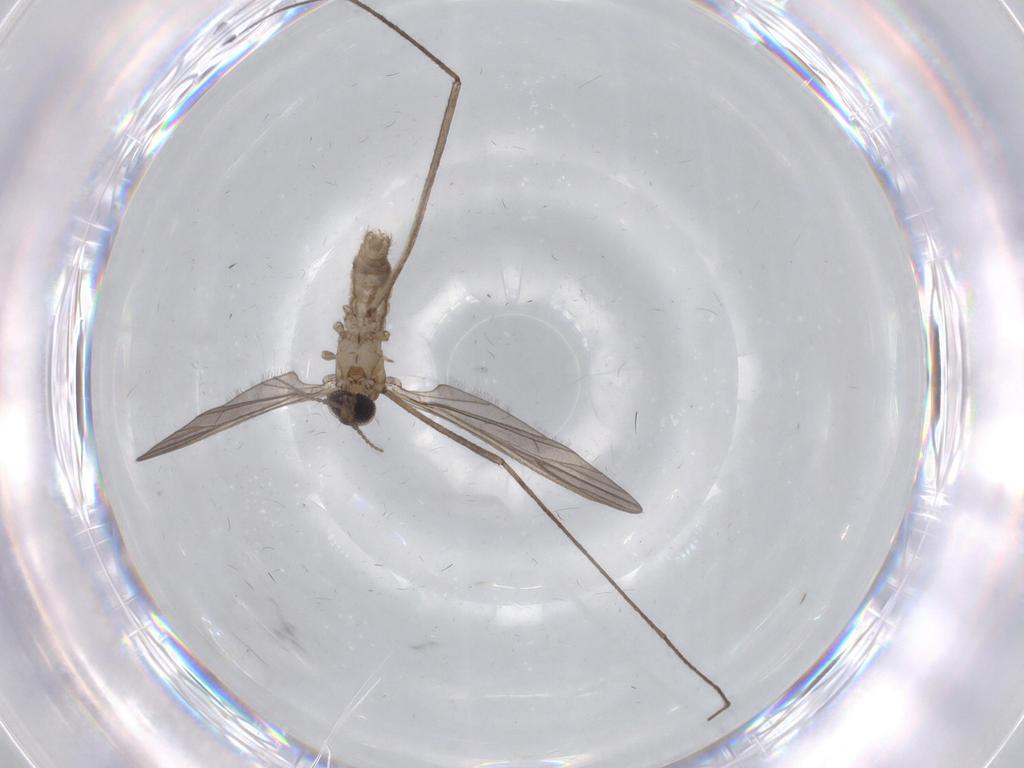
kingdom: Animalia
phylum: Arthropoda
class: Insecta
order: Diptera
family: Limoniidae
